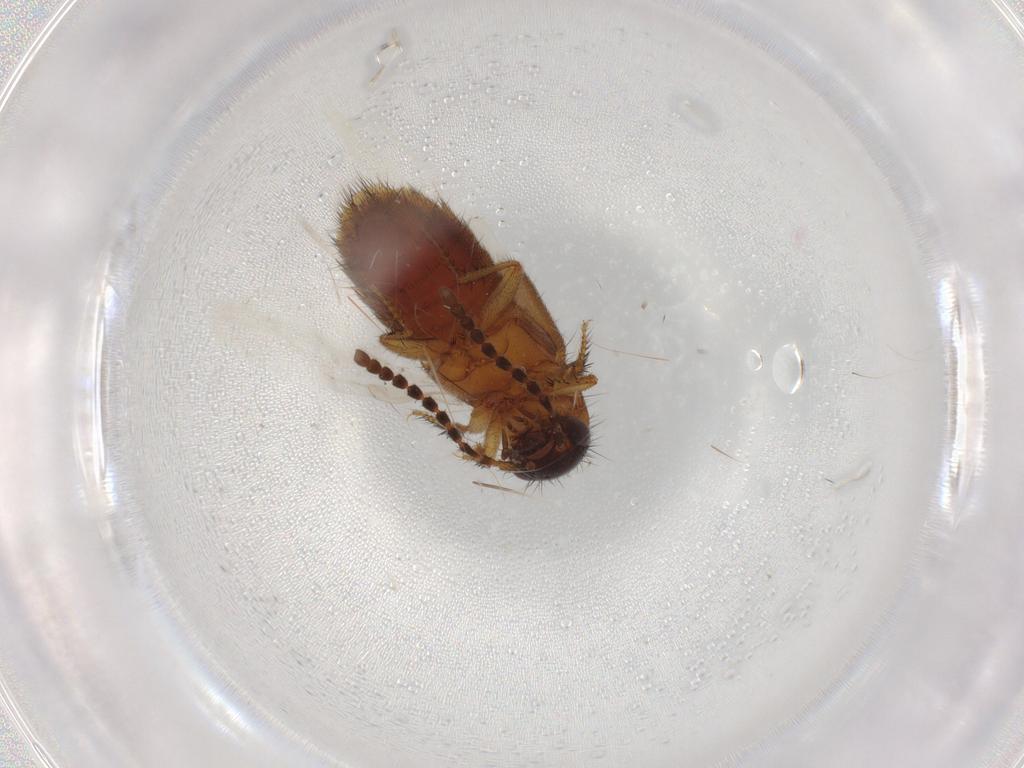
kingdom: Animalia
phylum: Arthropoda
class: Insecta
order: Coleoptera
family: Staphylinidae
